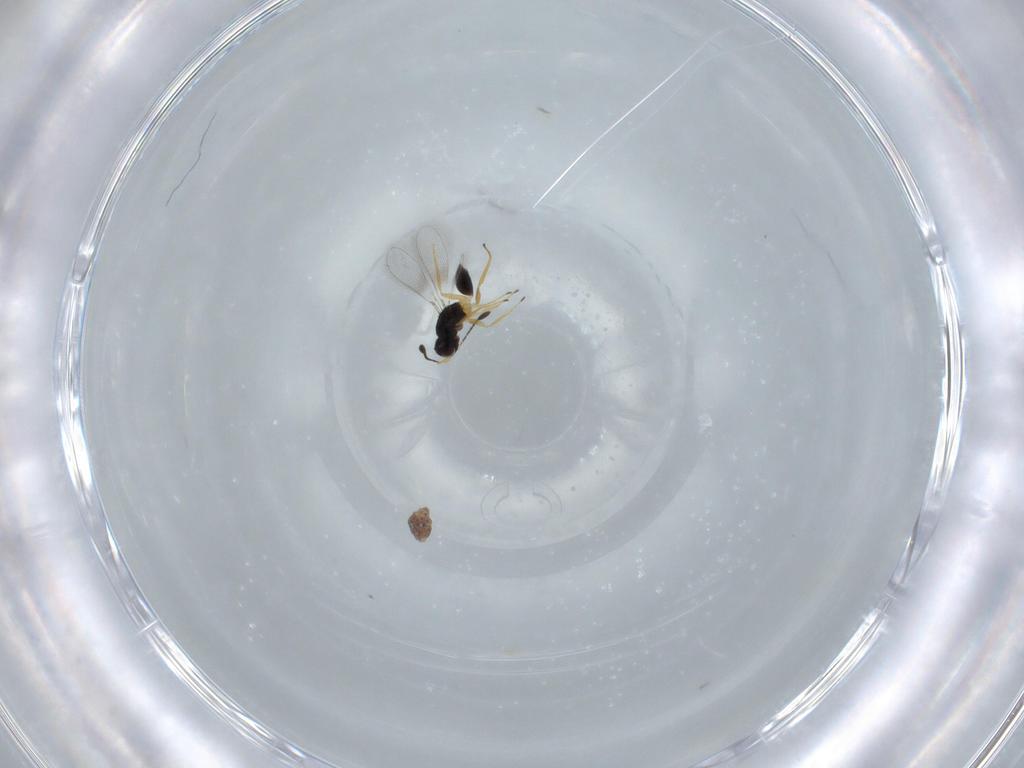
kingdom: Animalia
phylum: Arthropoda
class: Insecta
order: Hymenoptera
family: Mymaridae
